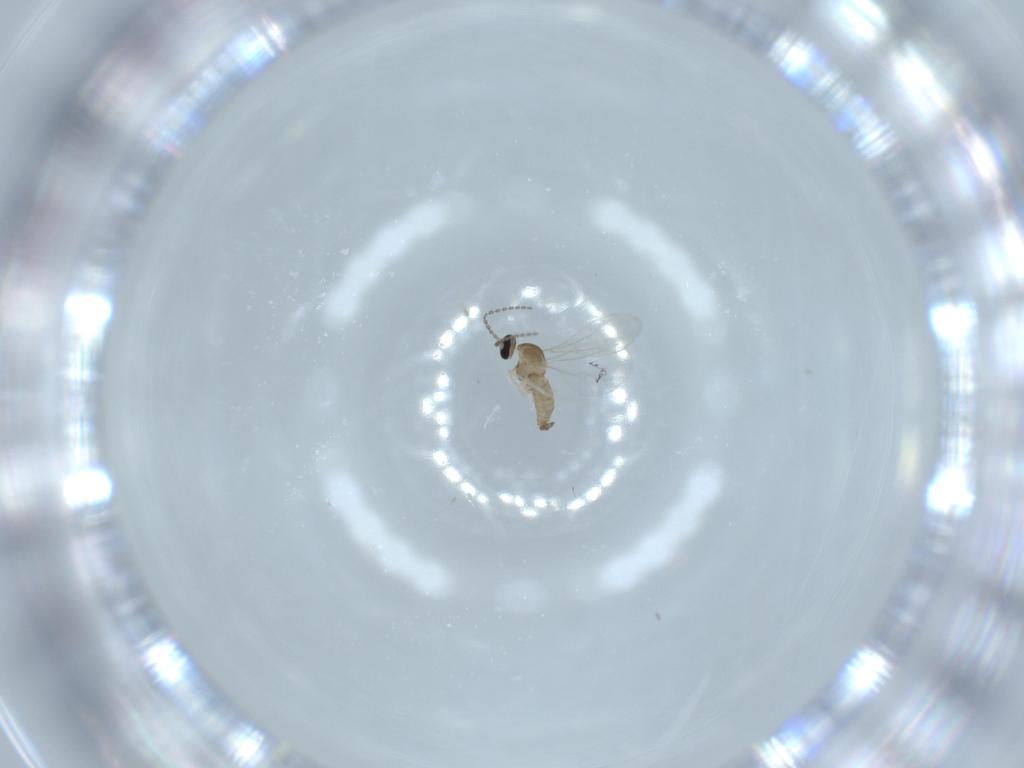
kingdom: Animalia
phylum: Arthropoda
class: Insecta
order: Diptera
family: Cecidomyiidae
